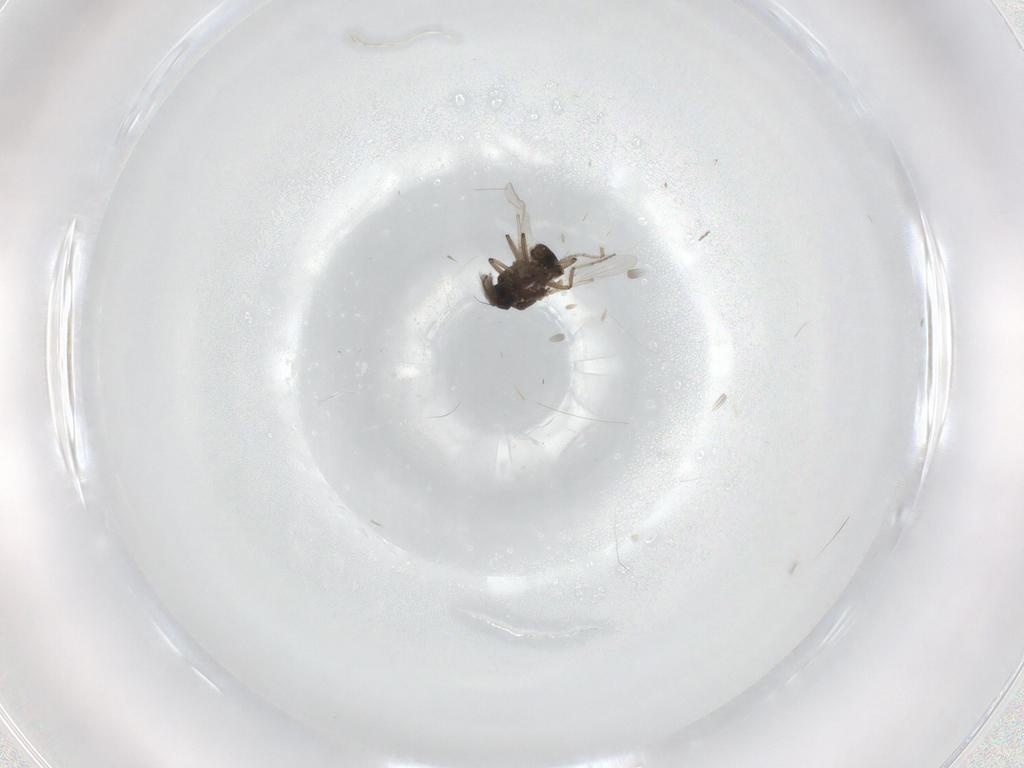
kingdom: Animalia
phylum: Arthropoda
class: Insecta
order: Diptera
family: Ceratopogonidae
